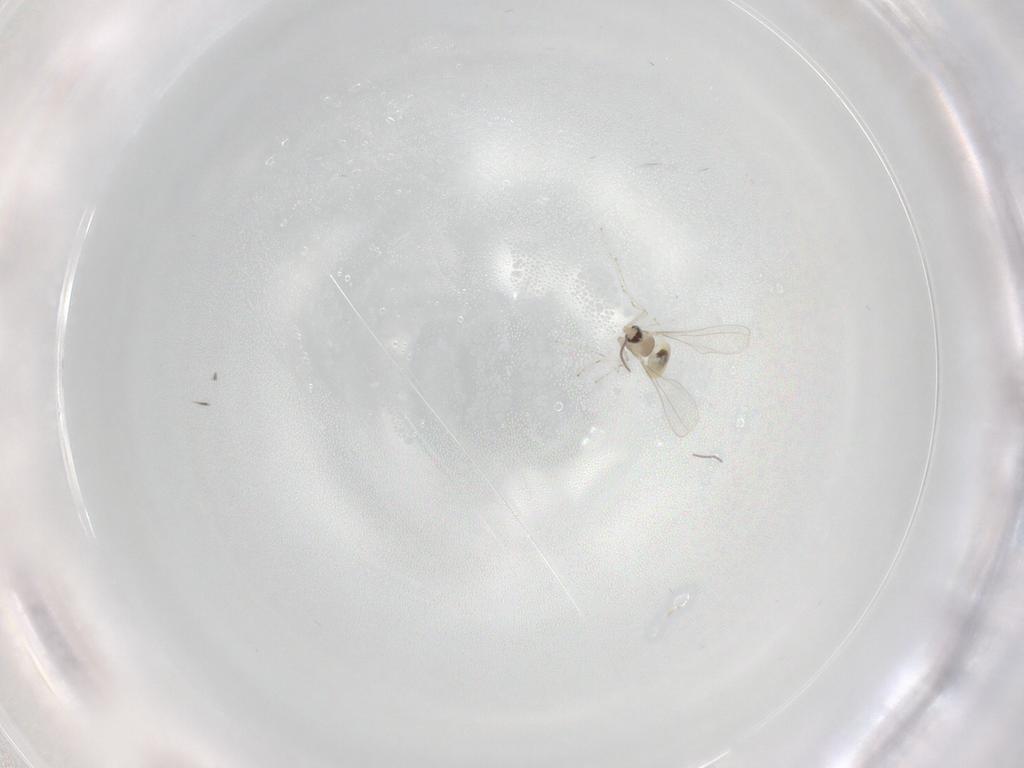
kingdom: Animalia
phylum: Arthropoda
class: Insecta
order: Diptera
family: Cecidomyiidae
